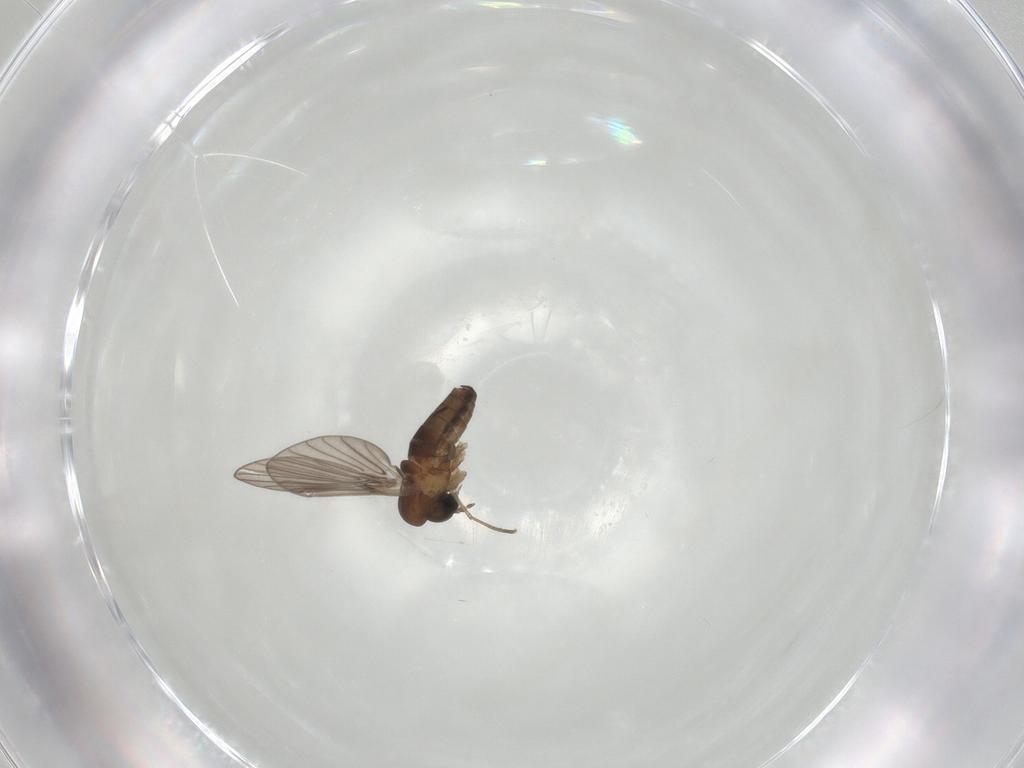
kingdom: Animalia
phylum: Arthropoda
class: Insecta
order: Diptera
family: Psychodidae
